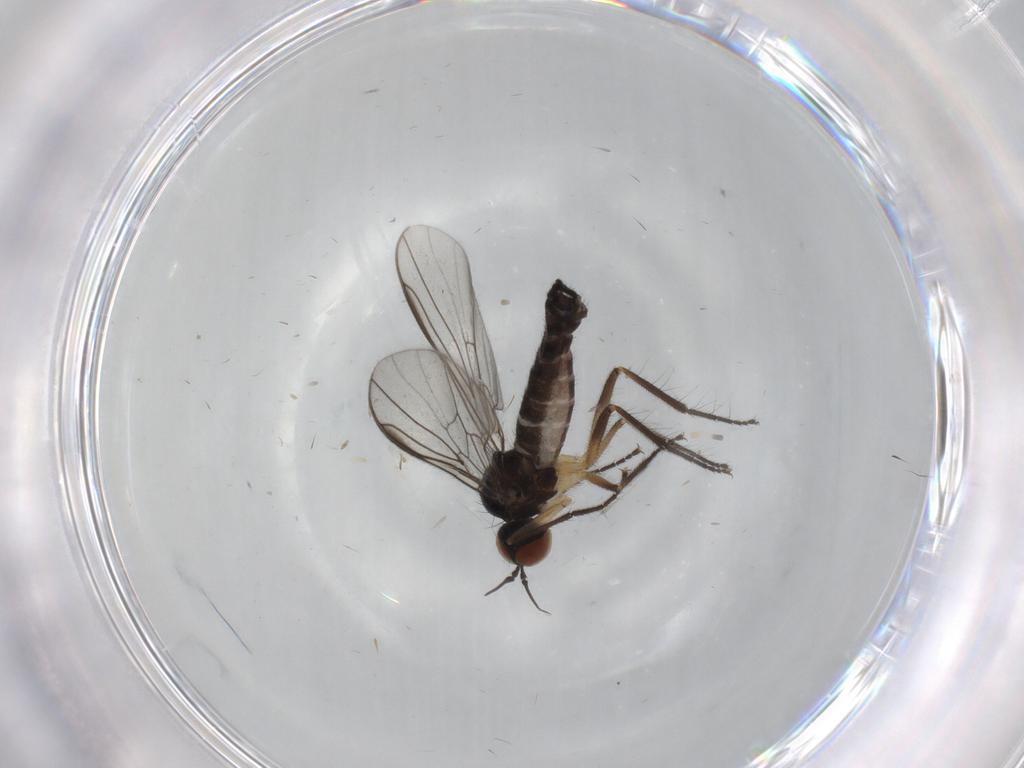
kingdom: Animalia
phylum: Arthropoda
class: Insecta
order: Diptera
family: Empididae
